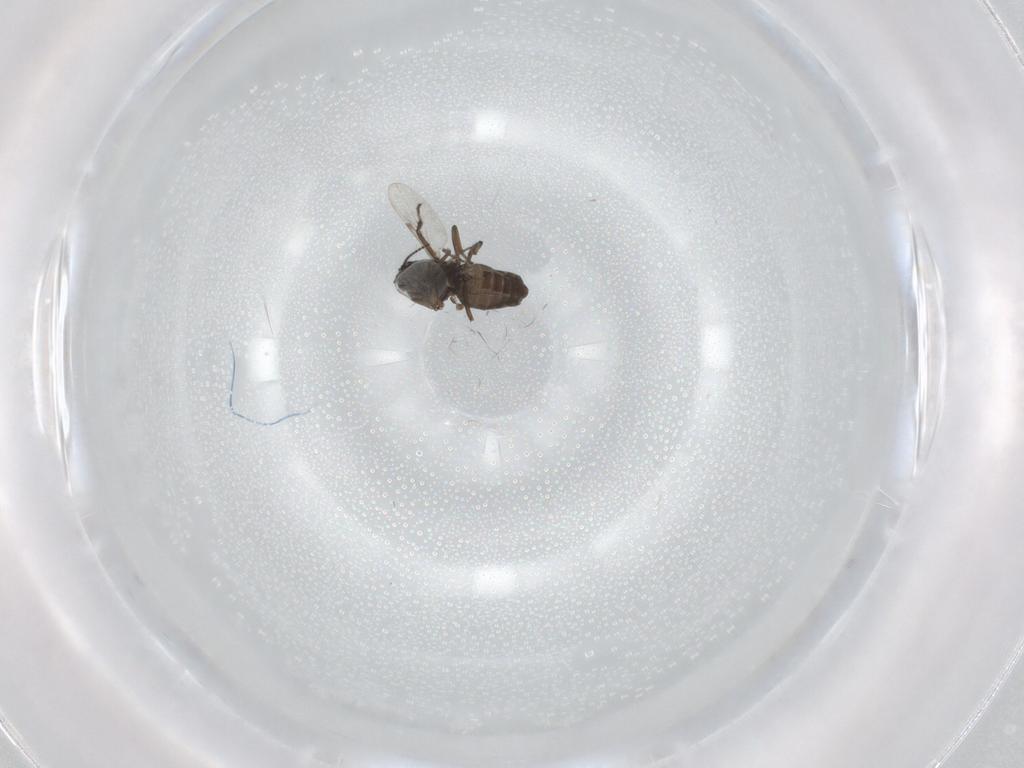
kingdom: Animalia
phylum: Arthropoda
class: Insecta
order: Diptera
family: Ceratopogonidae
